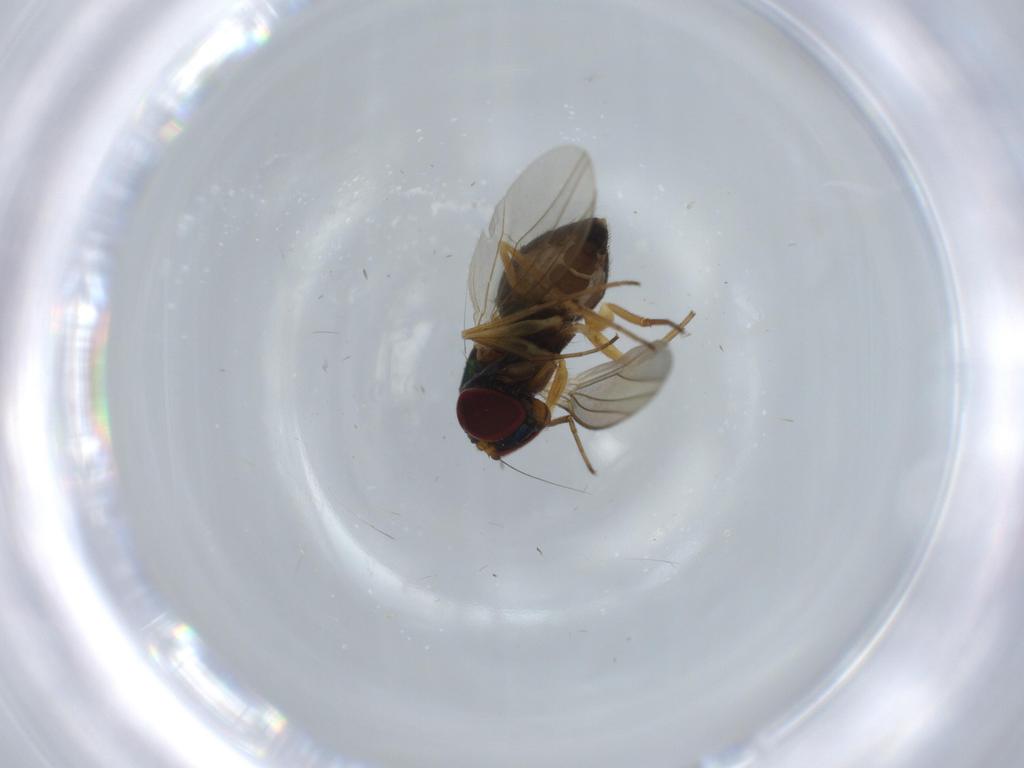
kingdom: Animalia
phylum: Arthropoda
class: Insecta
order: Diptera
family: Dolichopodidae
